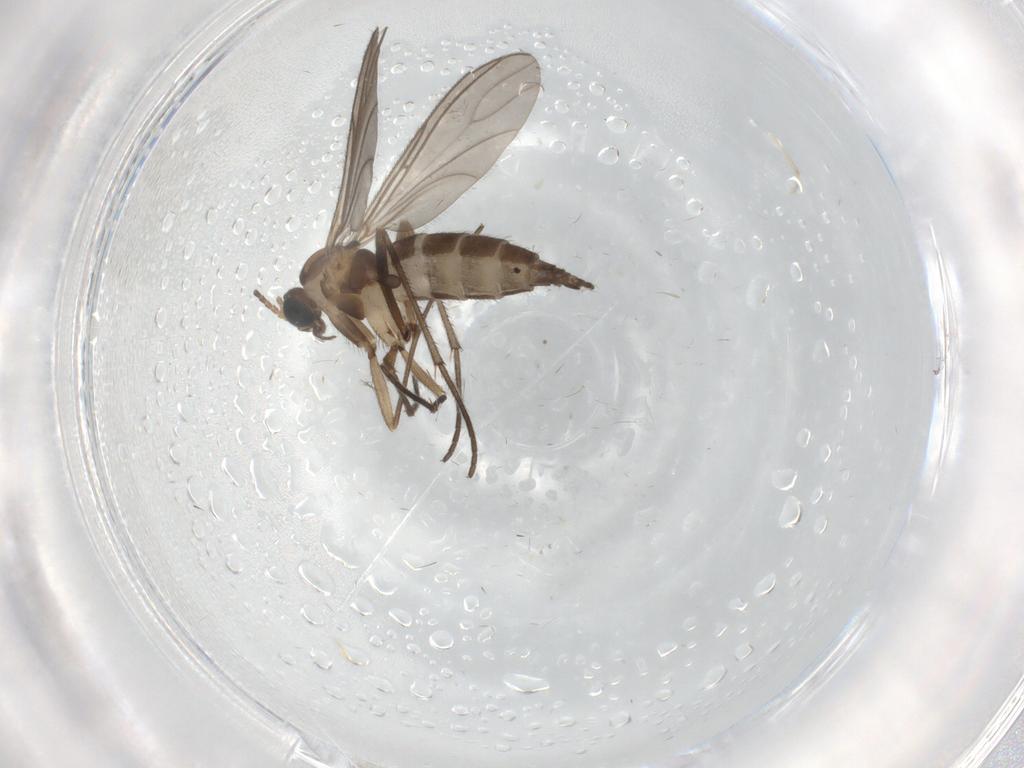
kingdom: Animalia
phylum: Arthropoda
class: Insecta
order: Diptera
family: Sciaridae
